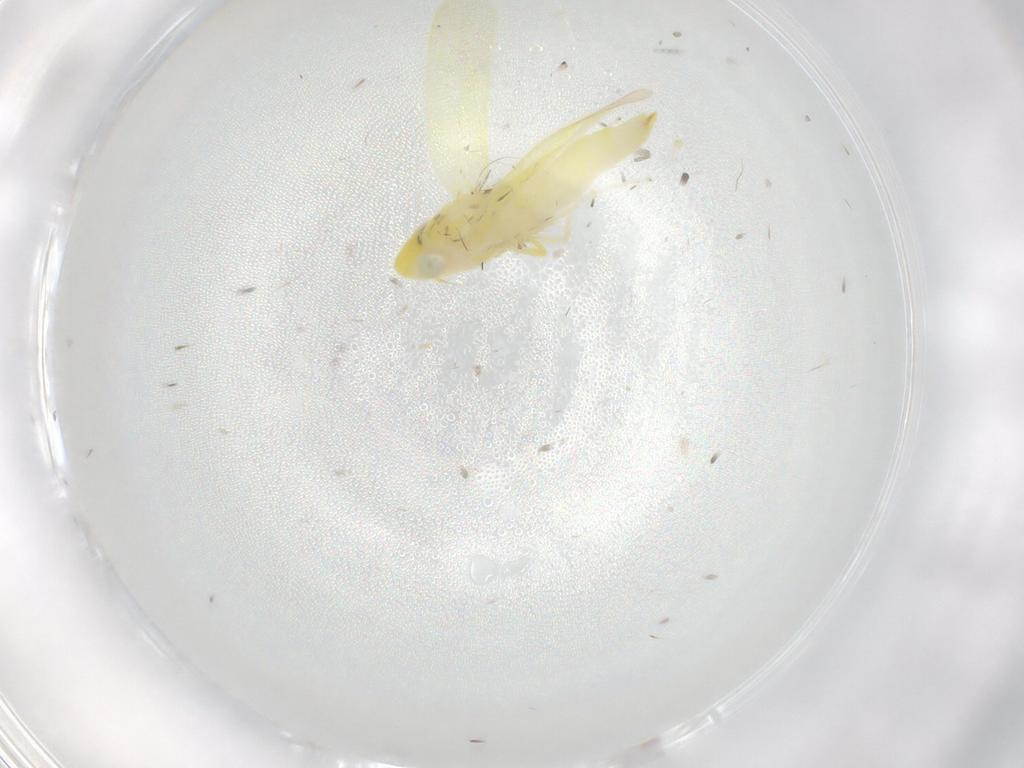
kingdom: Animalia
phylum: Arthropoda
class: Insecta
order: Hemiptera
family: Cicadellidae
